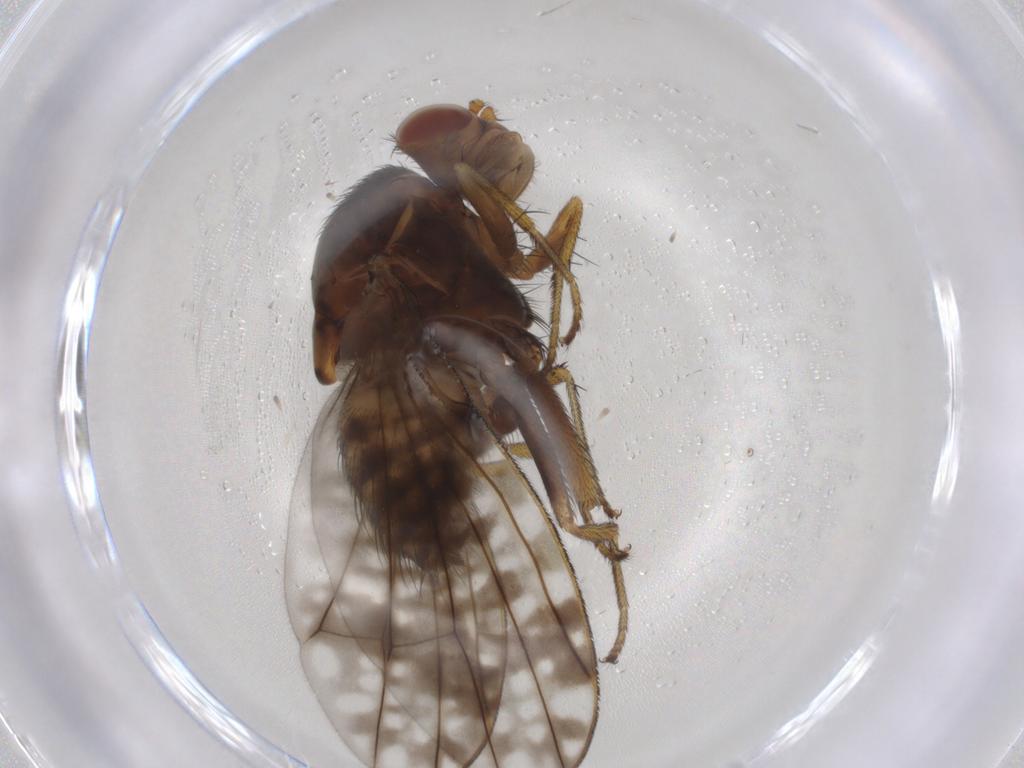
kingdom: Animalia
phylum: Arthropoda
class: Insecta
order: Diptera
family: Lauxaniidae
